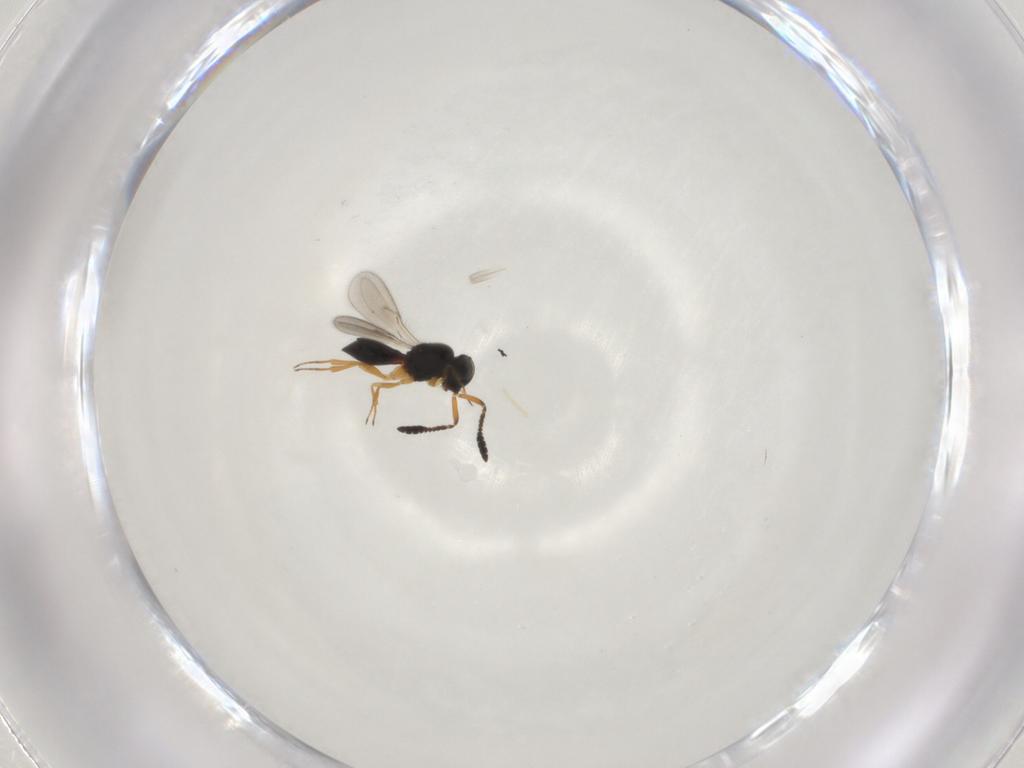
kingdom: Animalia
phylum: Arthropoda
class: Insecta
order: Hymenoptera
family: Scelionidae
